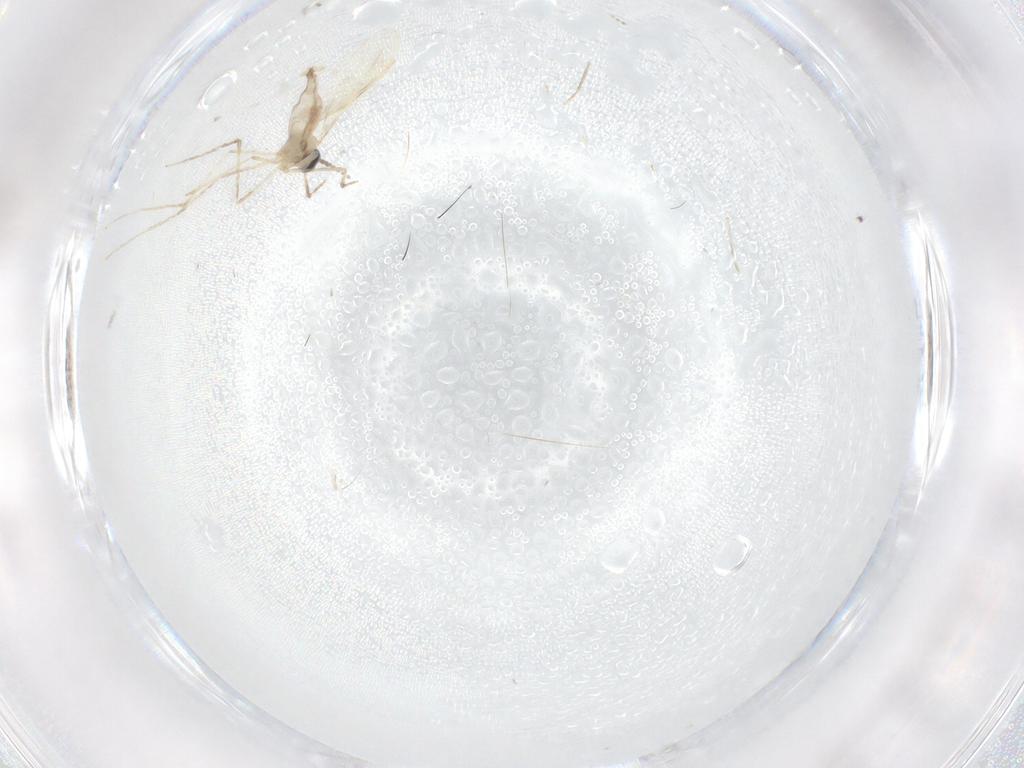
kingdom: Animalia
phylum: Arthropoda
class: Insecta
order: Diptera
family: Cecidomyiidae
